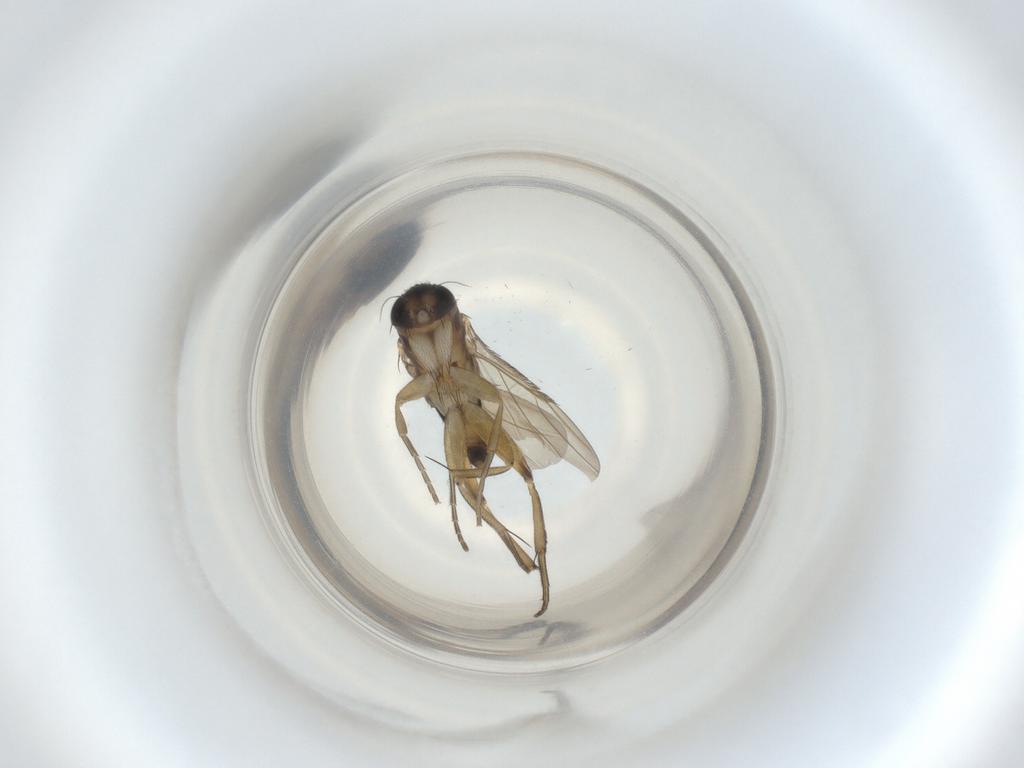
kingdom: Animalia
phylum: Arthropoda
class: Insecta
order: Diptera
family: Phoridae
